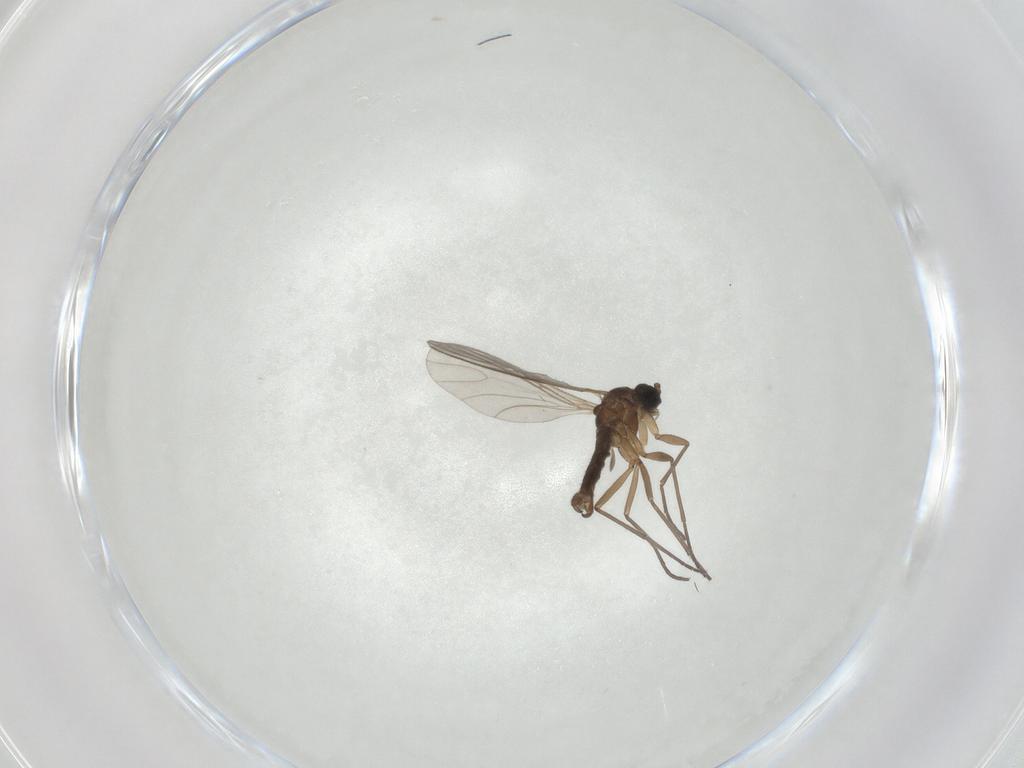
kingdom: Animalia
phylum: Arthropoda
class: Insecta
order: Diptera
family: Sciaridae
